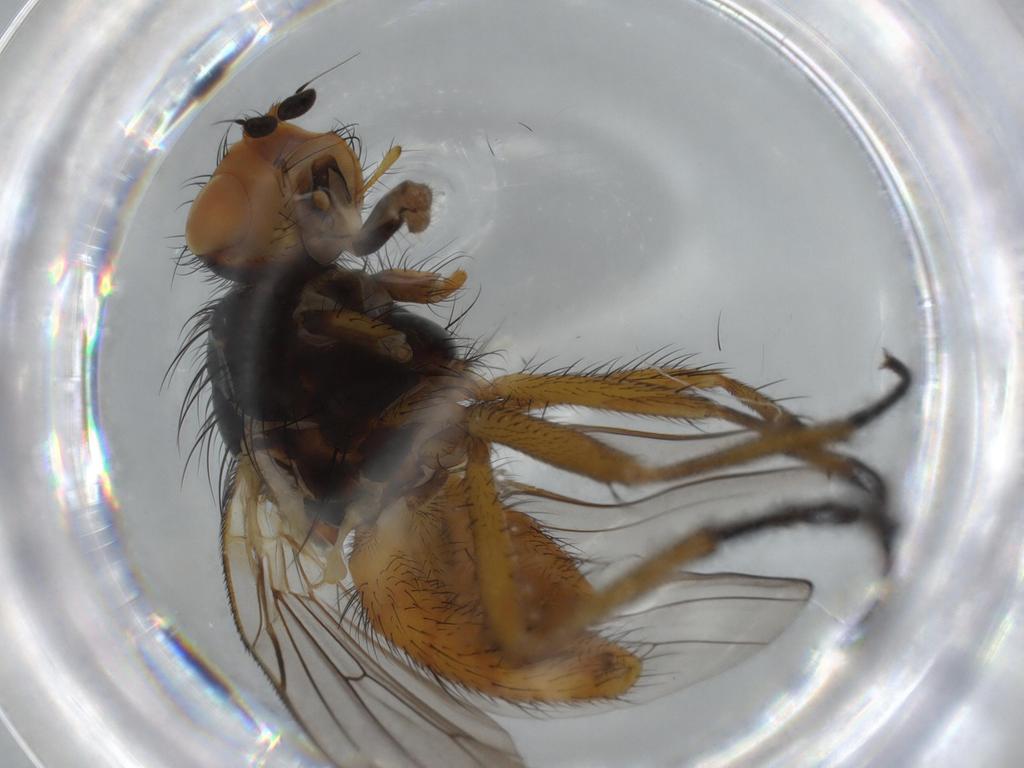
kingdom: Animalia
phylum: Arthropoda
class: Insecta
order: Diptera
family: Anthomyiidae
